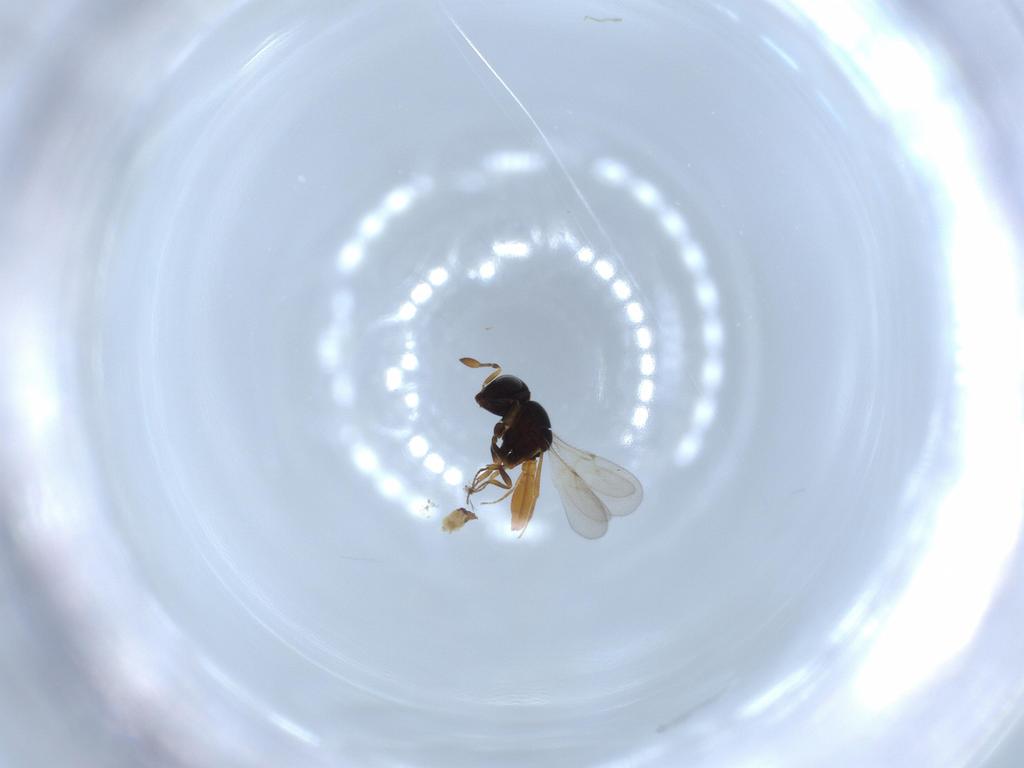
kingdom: Animalia
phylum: Arthropoda
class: Insecta
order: Hymenoptera
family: Scelionidae
